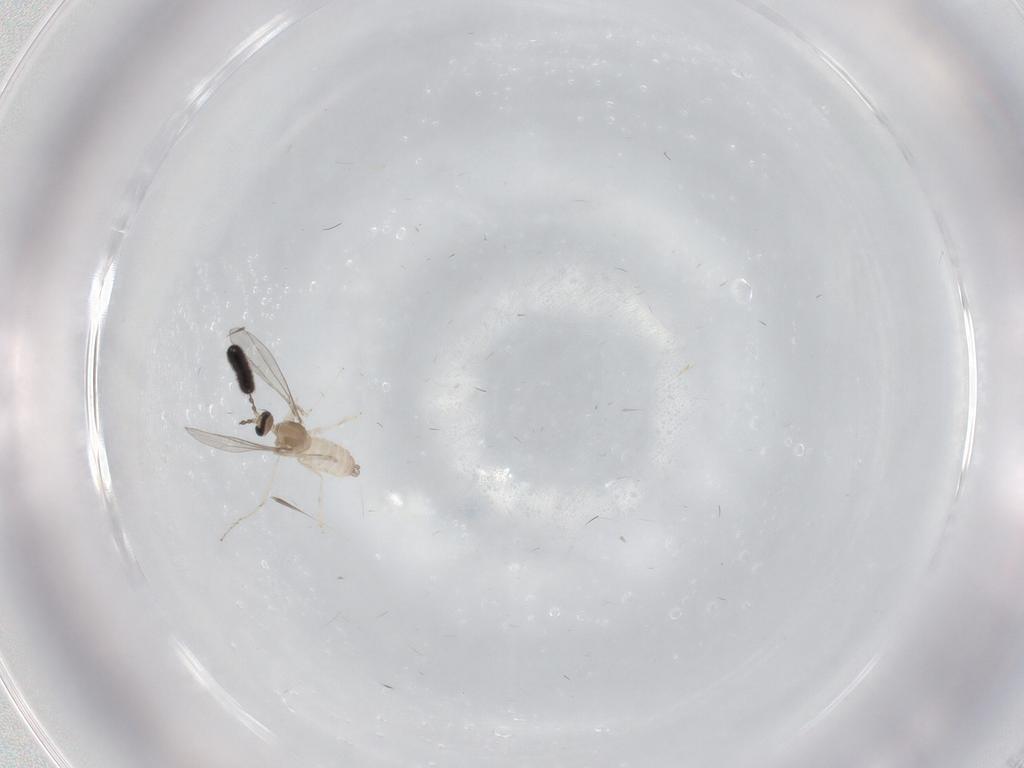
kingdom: Animalia
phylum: Arthropoda
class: Insecta
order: Diptera
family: Cecidomyiidae
